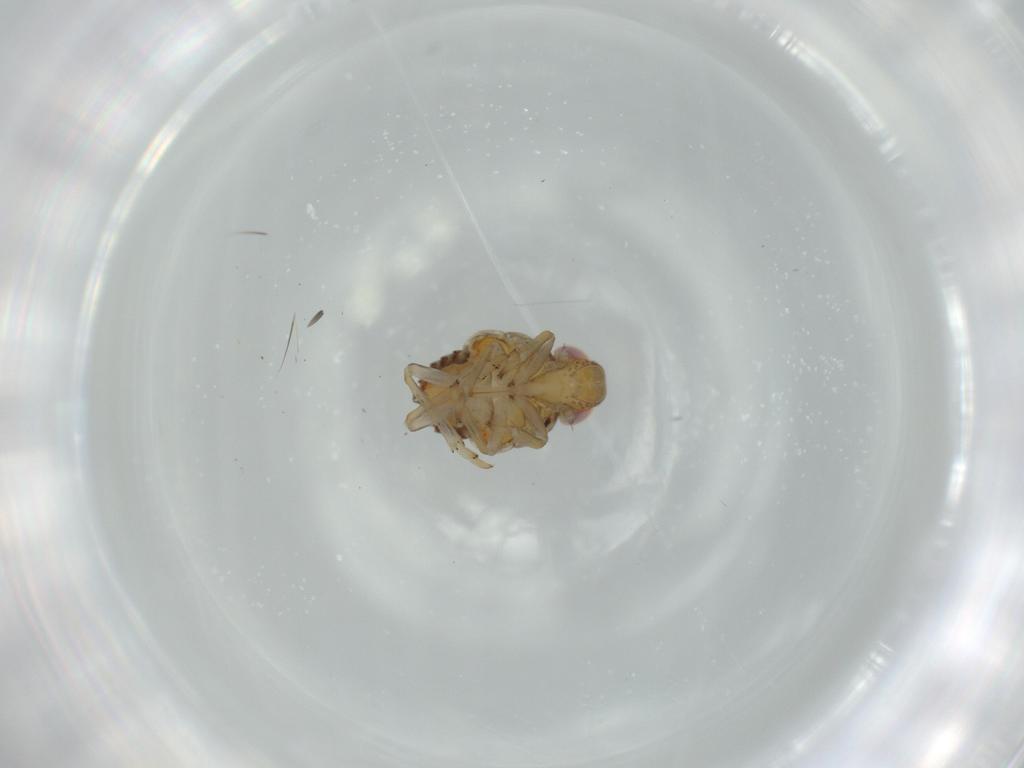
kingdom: Animalia
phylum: Arthropoda
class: Insecta
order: Hemiptera
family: Issidae
